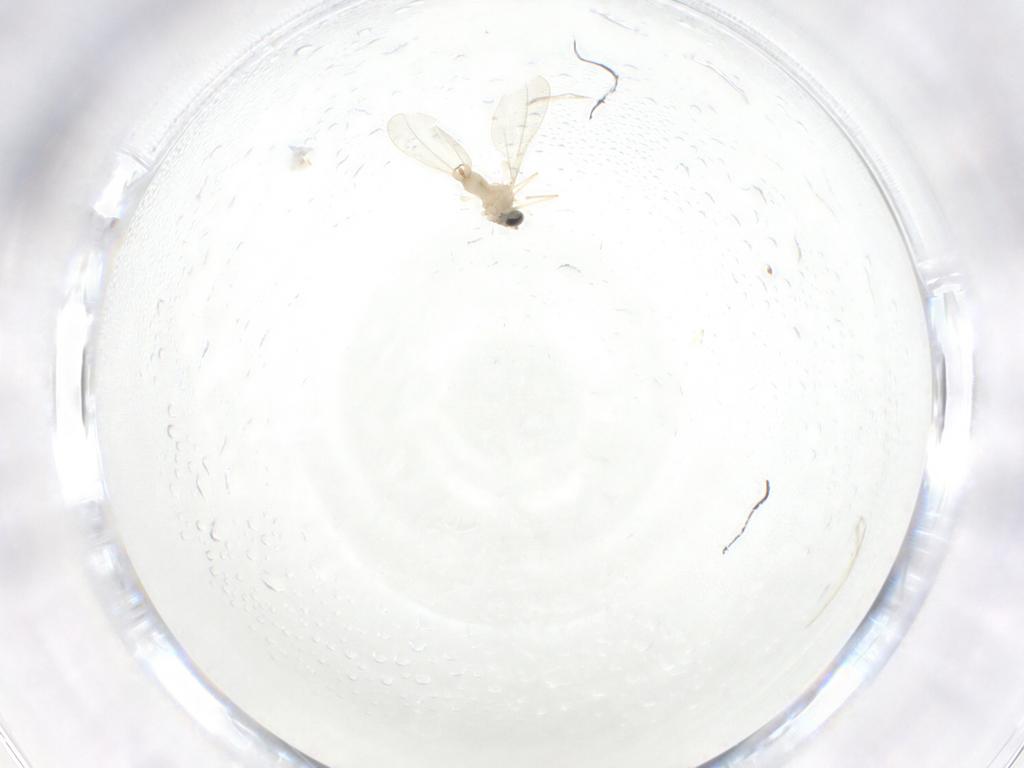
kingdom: Animalia
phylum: Arthropoda
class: Insecta
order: Diptera
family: Cecidomyiidae
